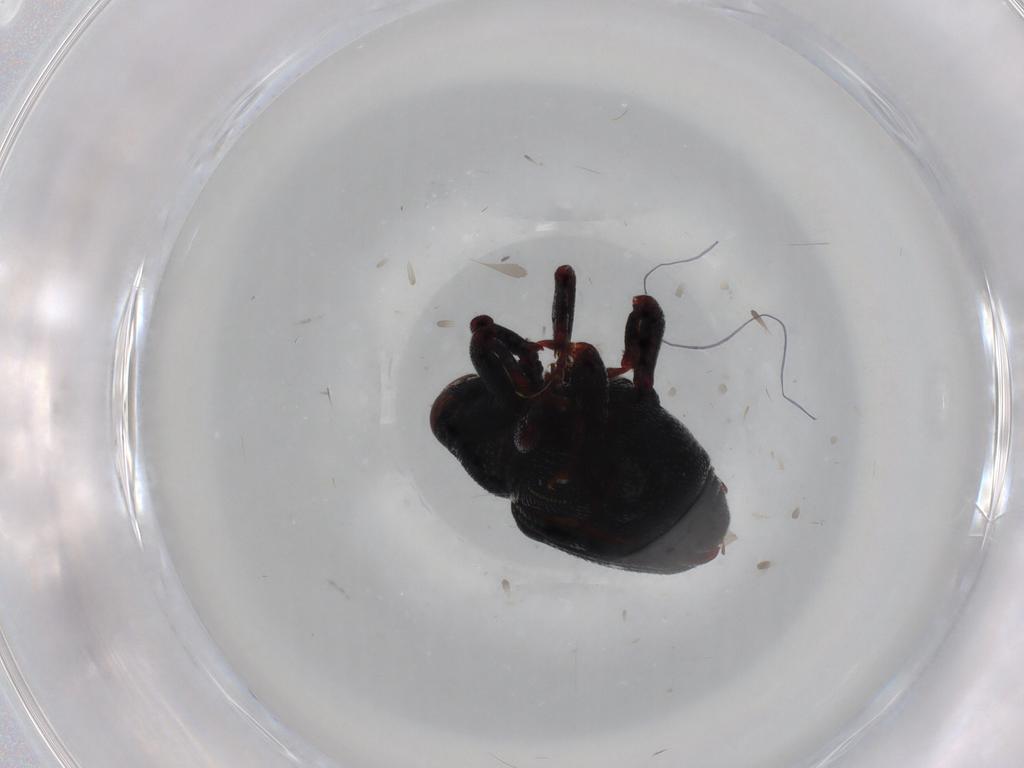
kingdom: Animalia
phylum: Arthropoda
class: Insecta
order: Coleoptera
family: Curculionidae
